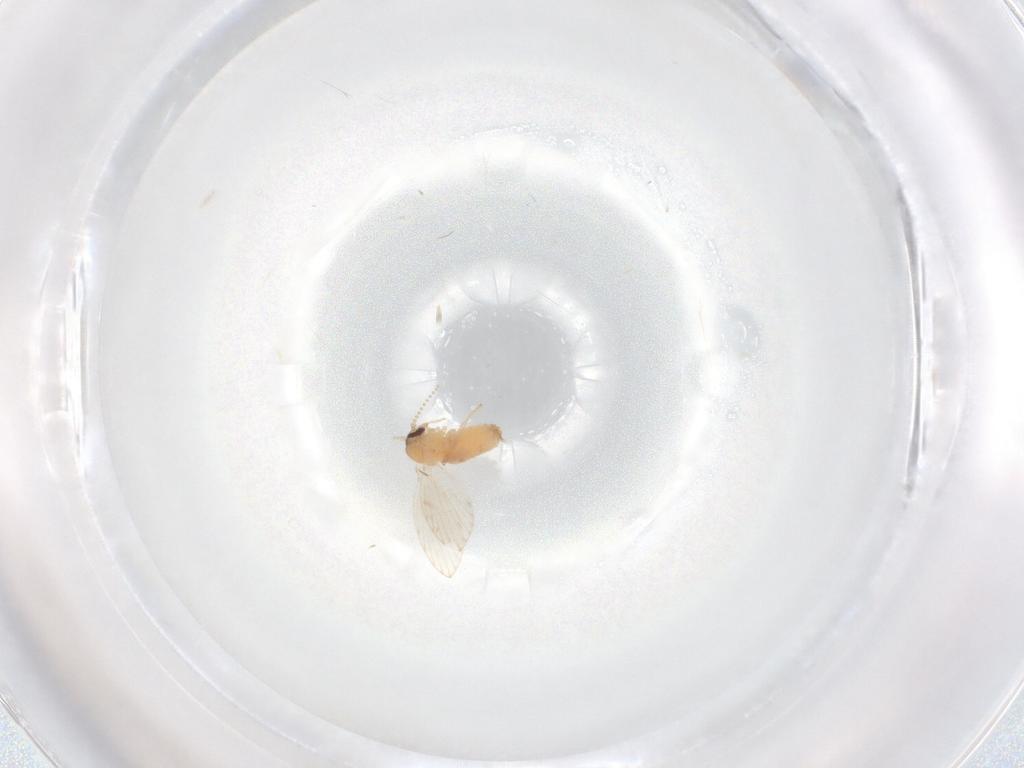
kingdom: Animalia
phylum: Arthropoda
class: Insecta
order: Diptera
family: Psychodidae
